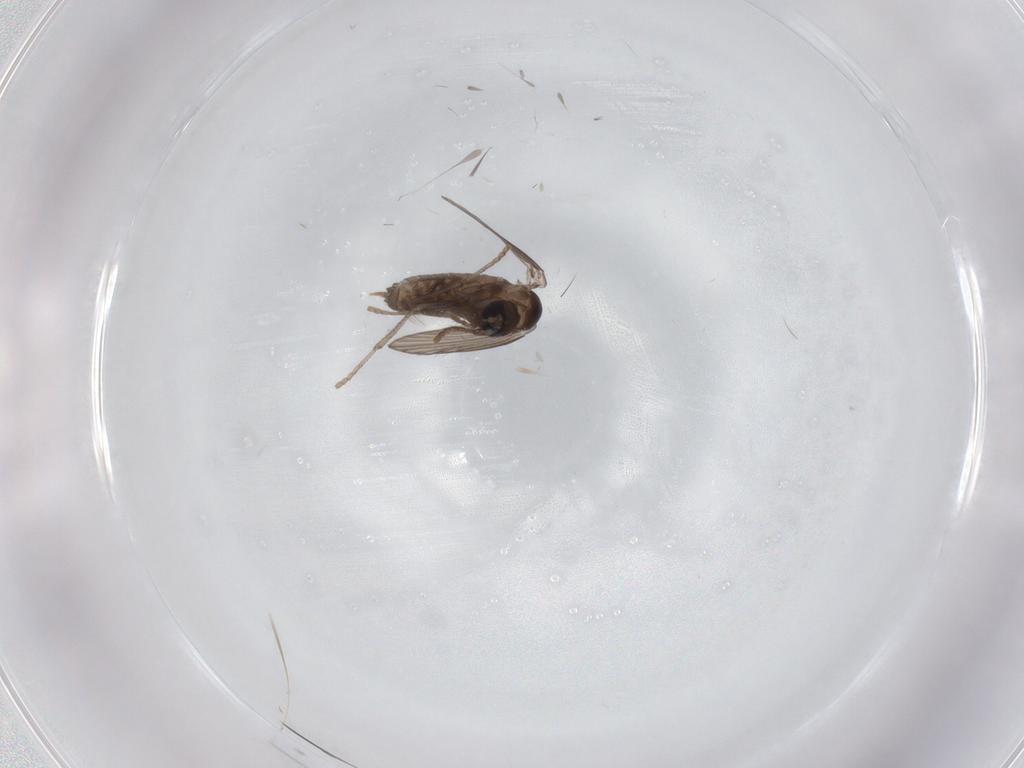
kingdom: Animalia
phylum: Arthropoda
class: Insecta
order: Diptera
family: Psychodidae
